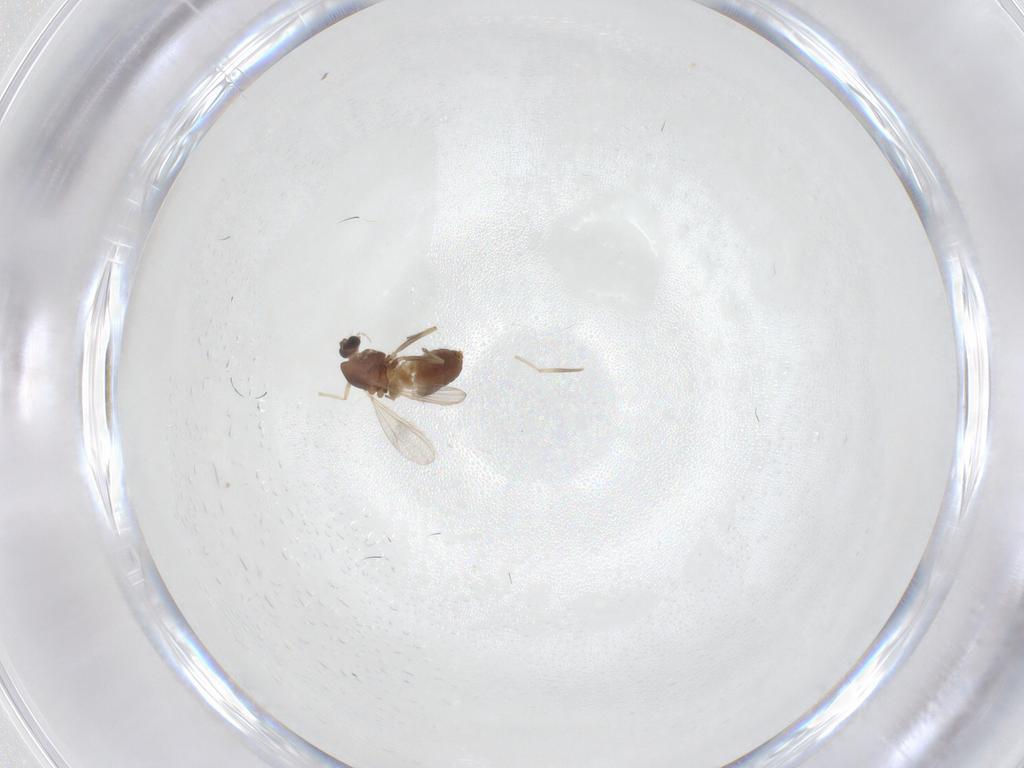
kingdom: Animalia
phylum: Arthropoda
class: Insecta
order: Diptera
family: Chironomidae
